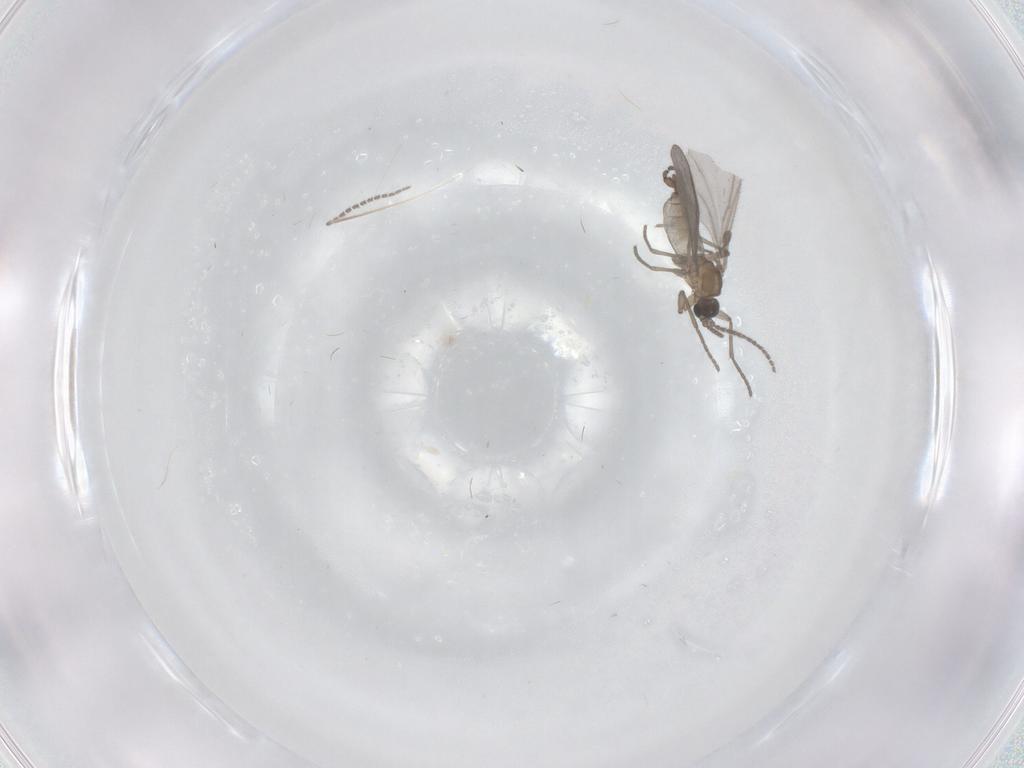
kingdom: Animalia
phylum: Arthropoda
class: Insecta
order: Diptera
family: Sciaridae
